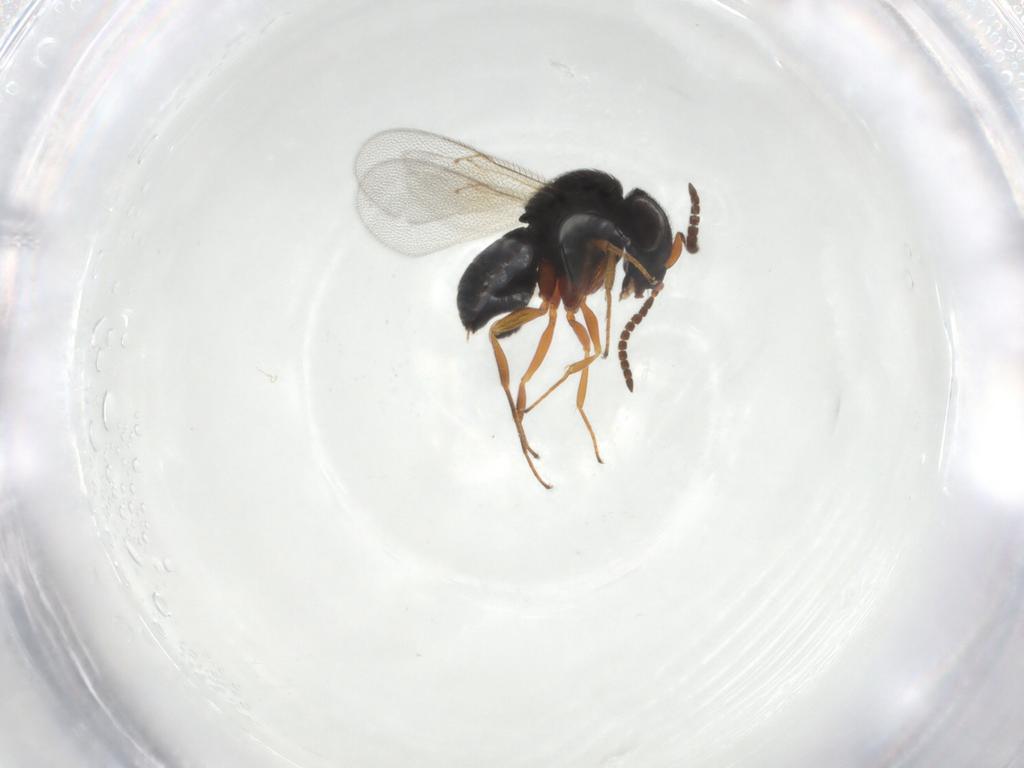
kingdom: Animalia
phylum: Arthropoda
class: Insecta
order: Hymenoptera
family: Scelionidae
